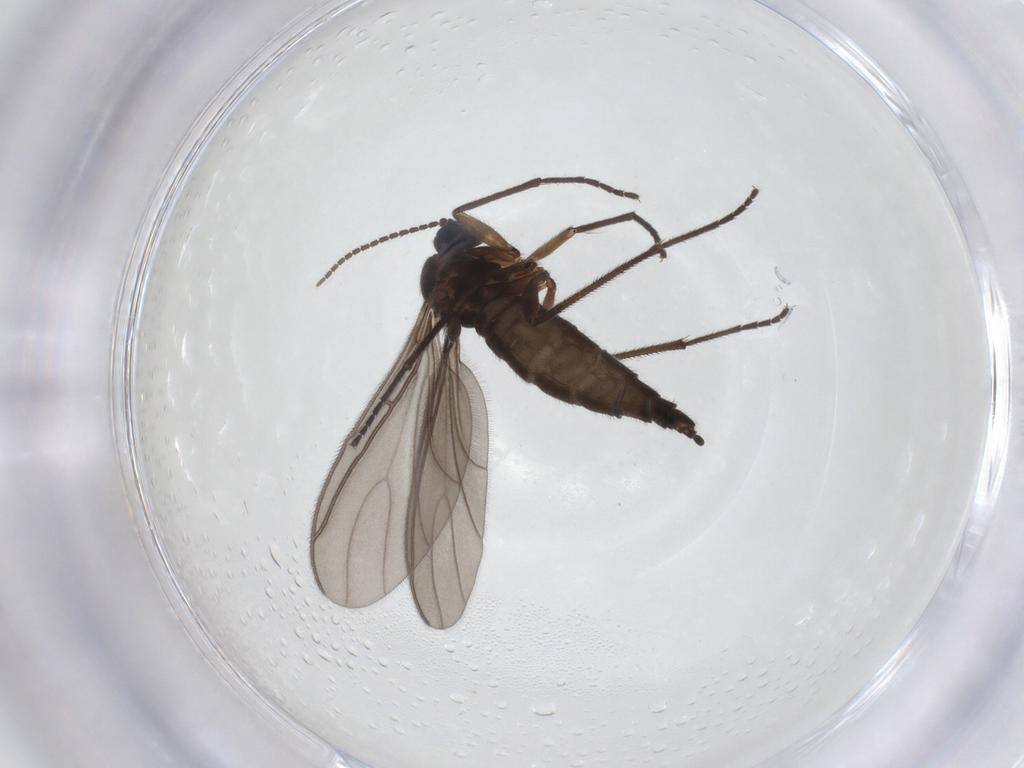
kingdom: Animalia
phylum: Arthropoda
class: Insecta
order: Diptera
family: Sciaridae
